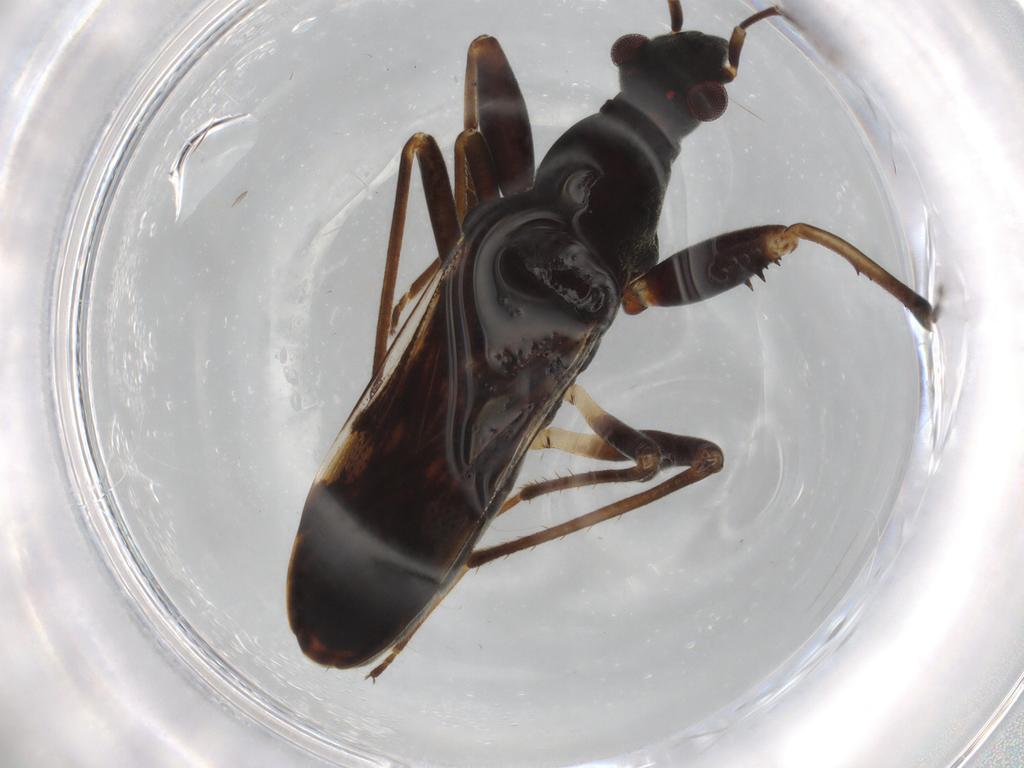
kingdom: Animalia
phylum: Arthropoda
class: Insecta
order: Hemiptera
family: Rhyparochromidae
